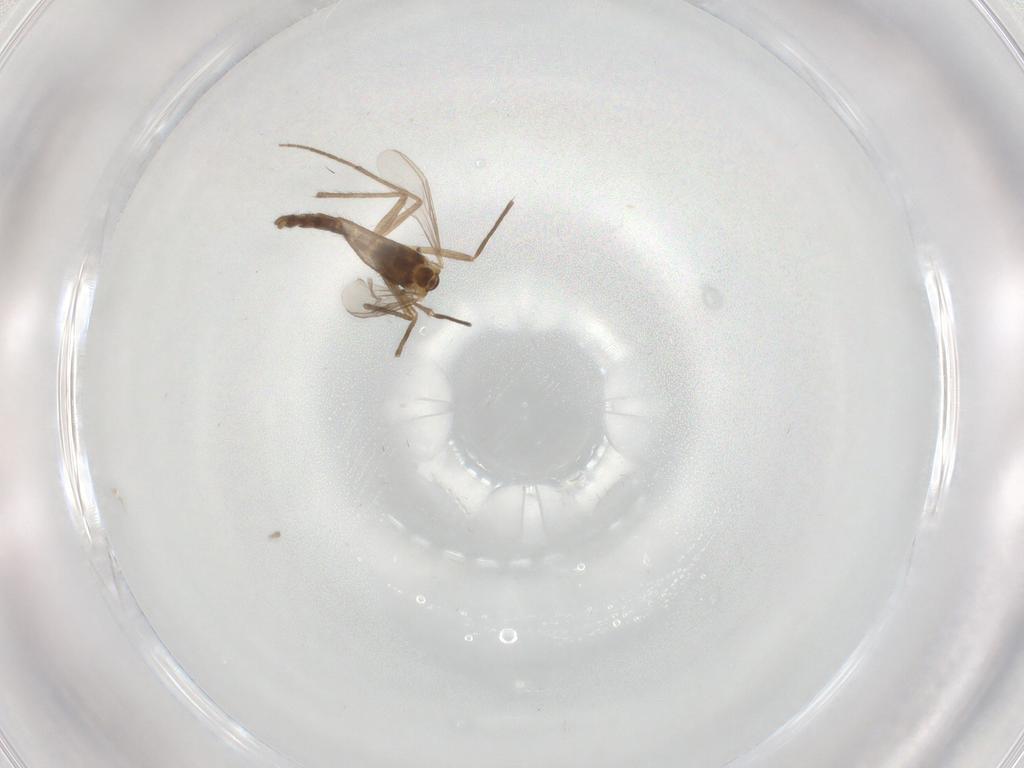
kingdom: Animalia
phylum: Arthropoda
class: Insecta
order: Diptera
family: Chironomidae
